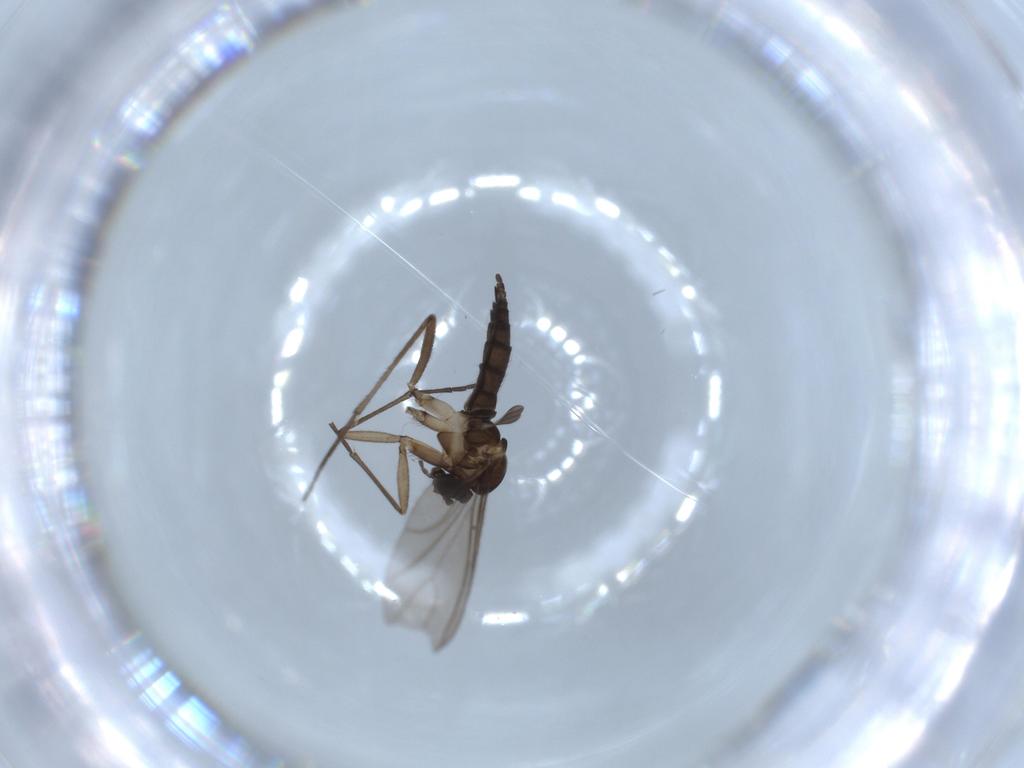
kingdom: Animalia
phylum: Arthropoda
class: Insecta
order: Diptera
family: Sciaridae
